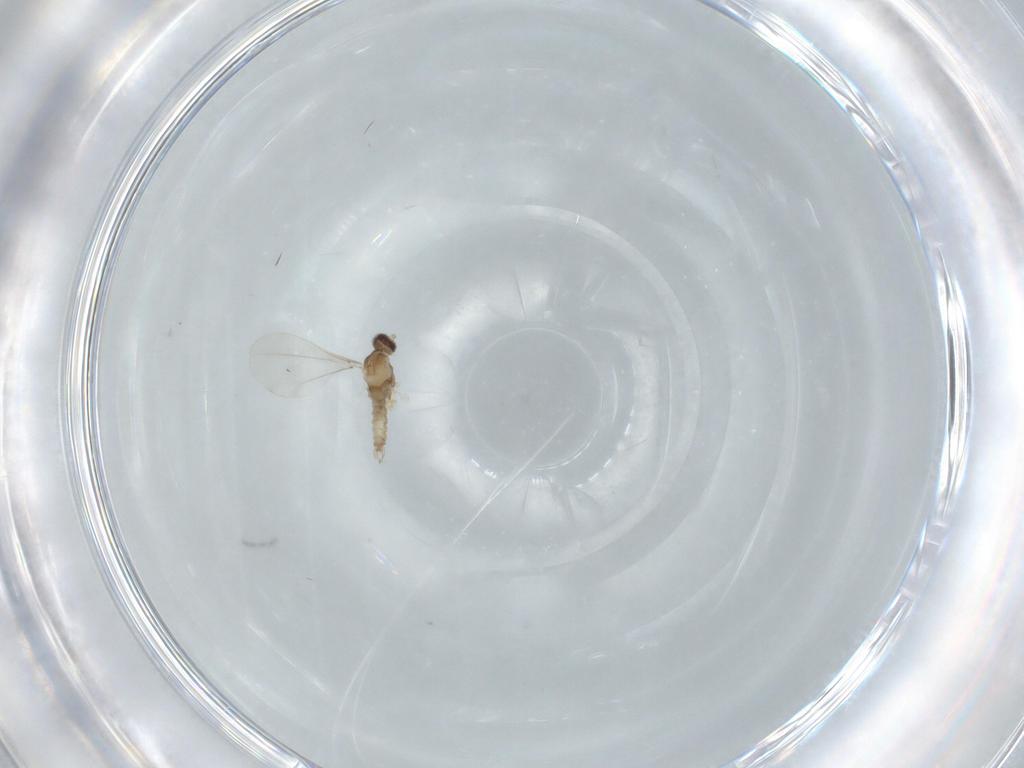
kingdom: Animalia
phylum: Arthropoda
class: Insecta
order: Diptera
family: Cecidomyiidae
